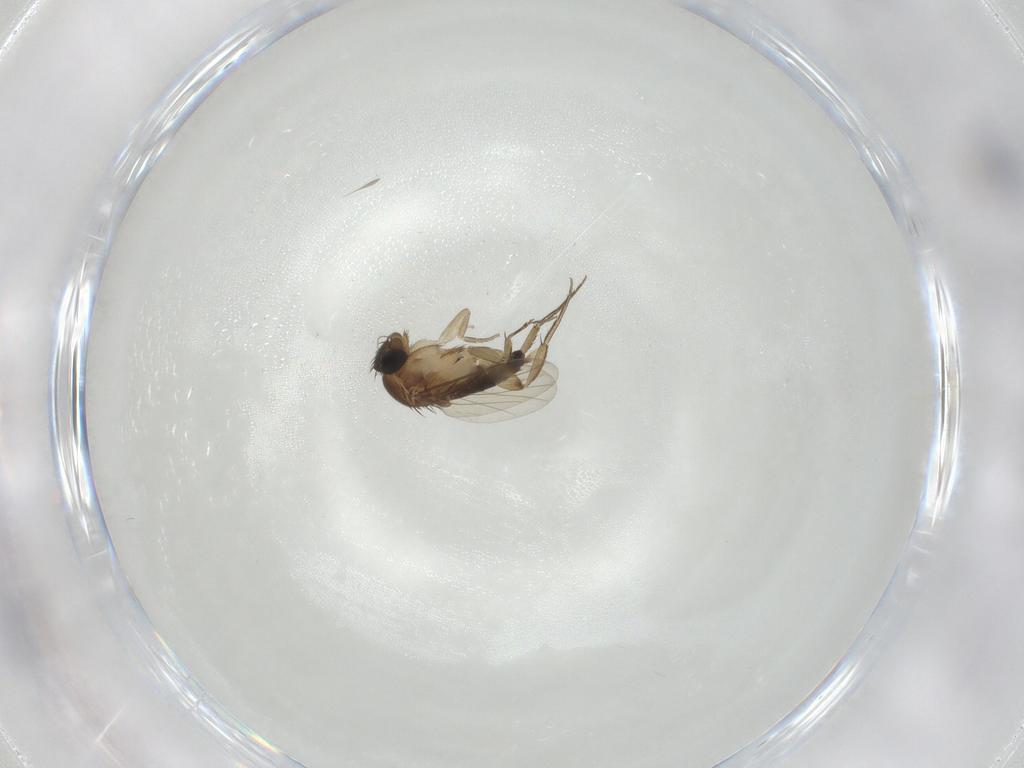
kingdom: Animalia
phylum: Arthropoda
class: Insecta
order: Diptera
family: Phoridae
